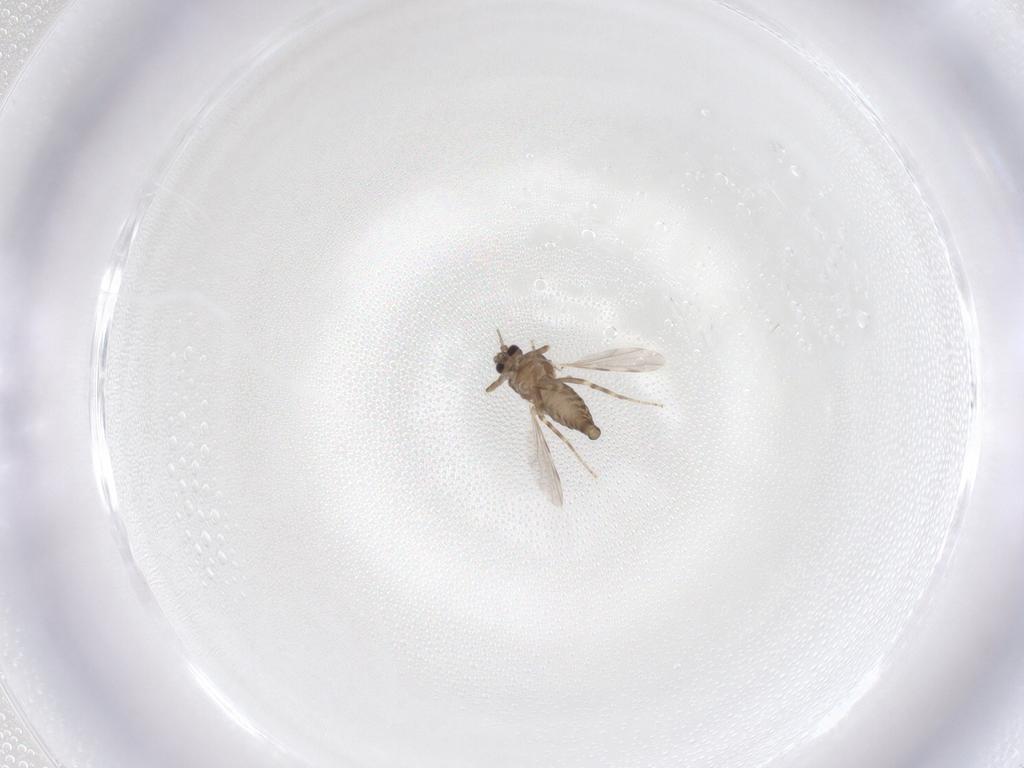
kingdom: Animalia
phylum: Arthropoda
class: Insecta
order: Diptera
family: Ceratopogonidae
